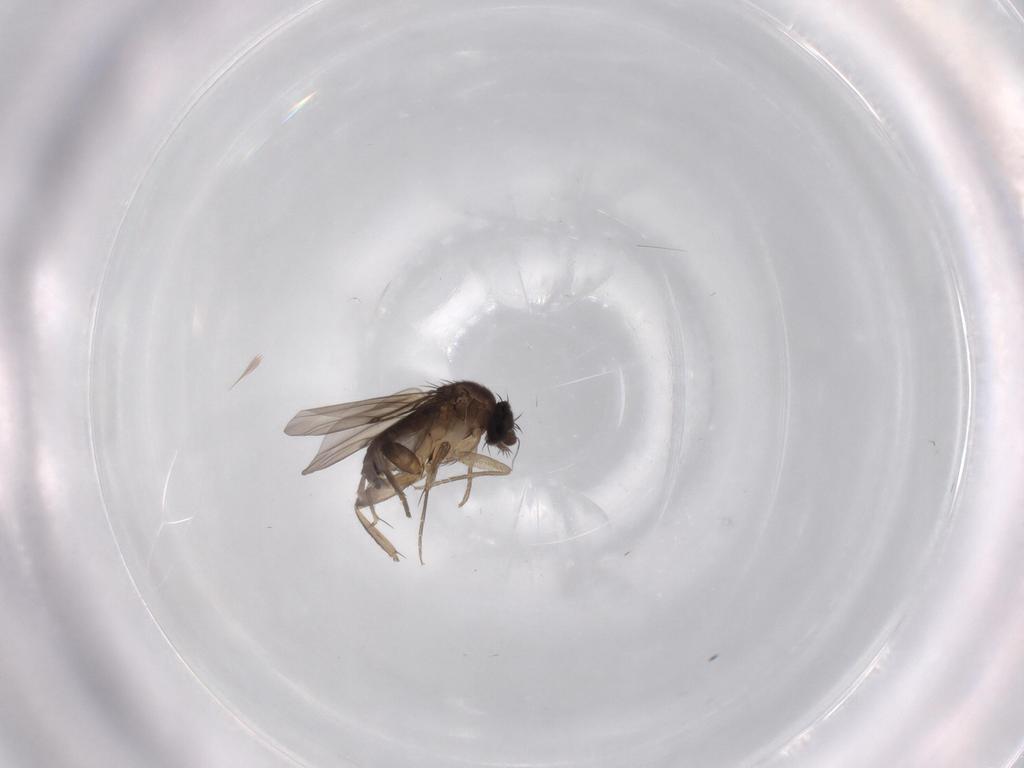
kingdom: Animalia
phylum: Arthropoda
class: Insecta
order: Diptera
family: Phoridae
